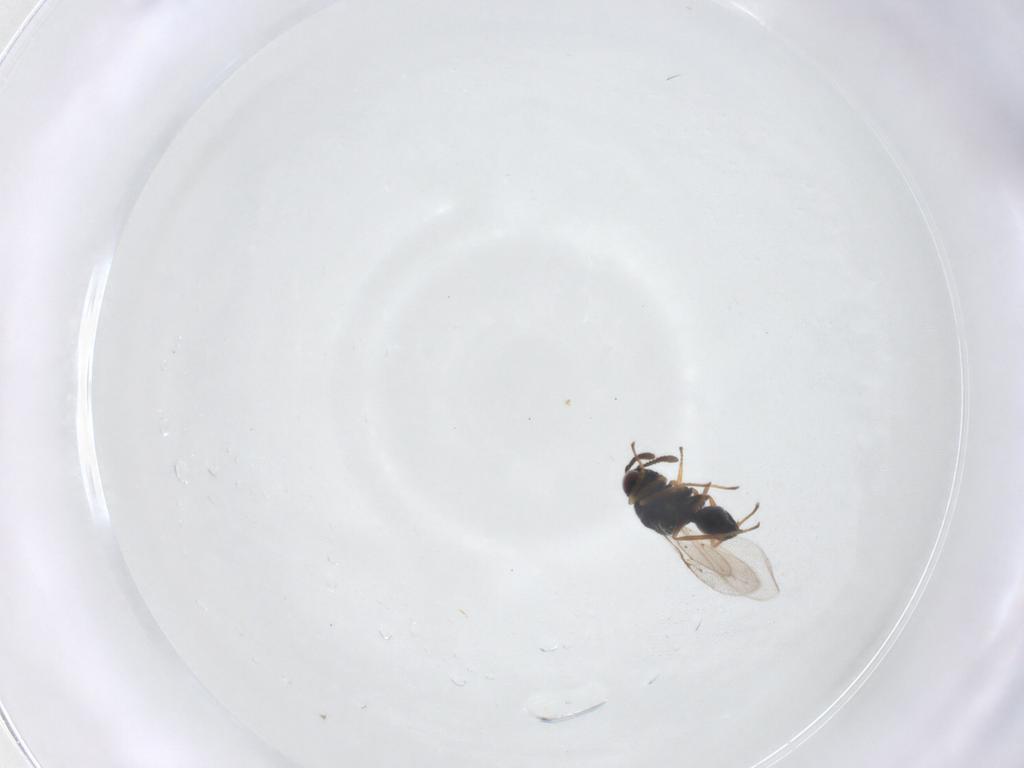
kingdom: Animalia
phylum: Arthropoda
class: Insecta
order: Hymenoptera
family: Chalcidoidea_incertae_sedis
